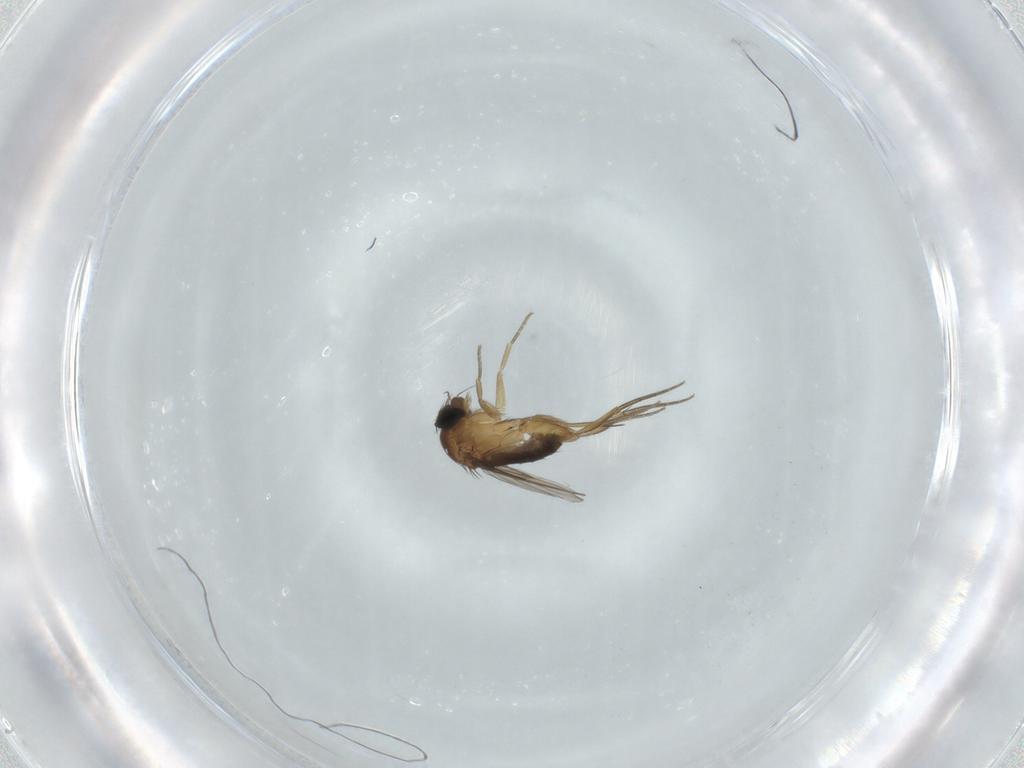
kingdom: Animalia
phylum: Arthropoda
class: Insecta
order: Diptera
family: Phoridae
